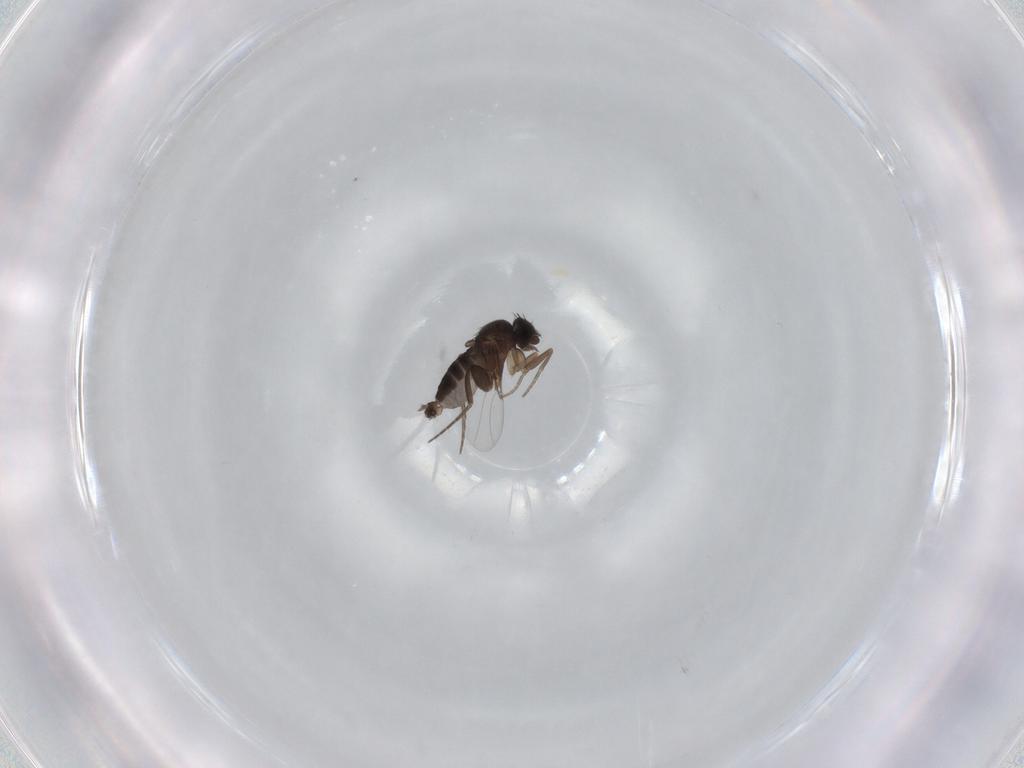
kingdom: Animalia
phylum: Arthropoda
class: Insecta
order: Diptera
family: Phoridae
